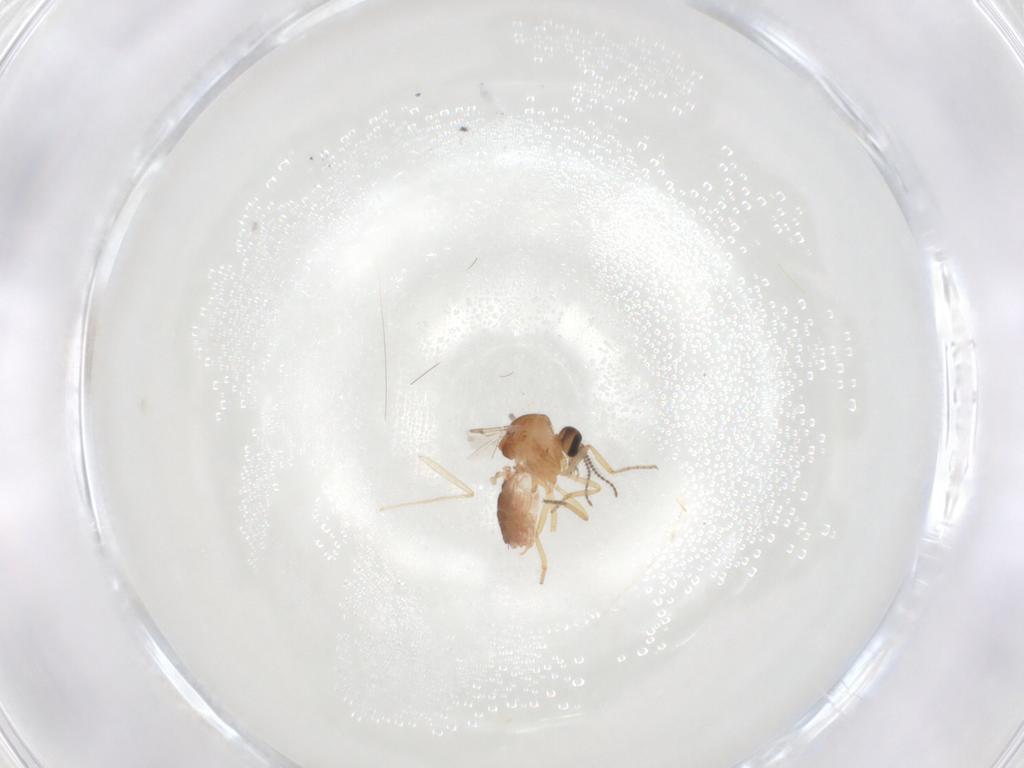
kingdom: Animalia
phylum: Arthropoda
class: Insecta
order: Diptera
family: Ceratopogonidae
